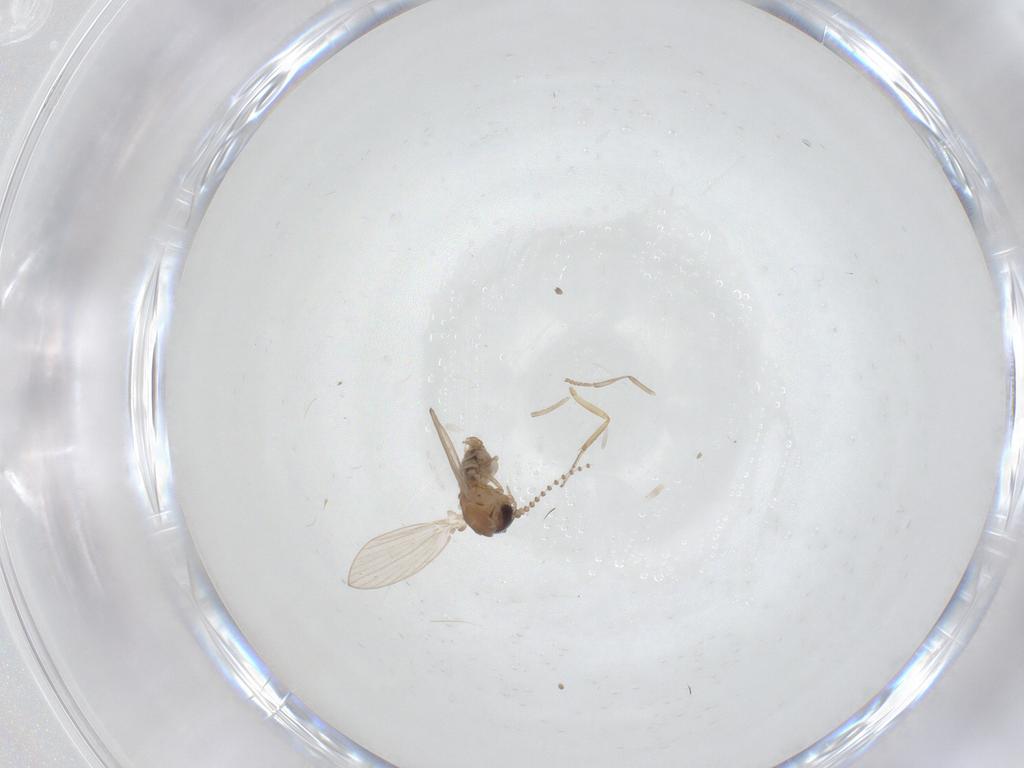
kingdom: Animalia
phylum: Arthropoda
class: Insecta
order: Diptera
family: Psychodidae
